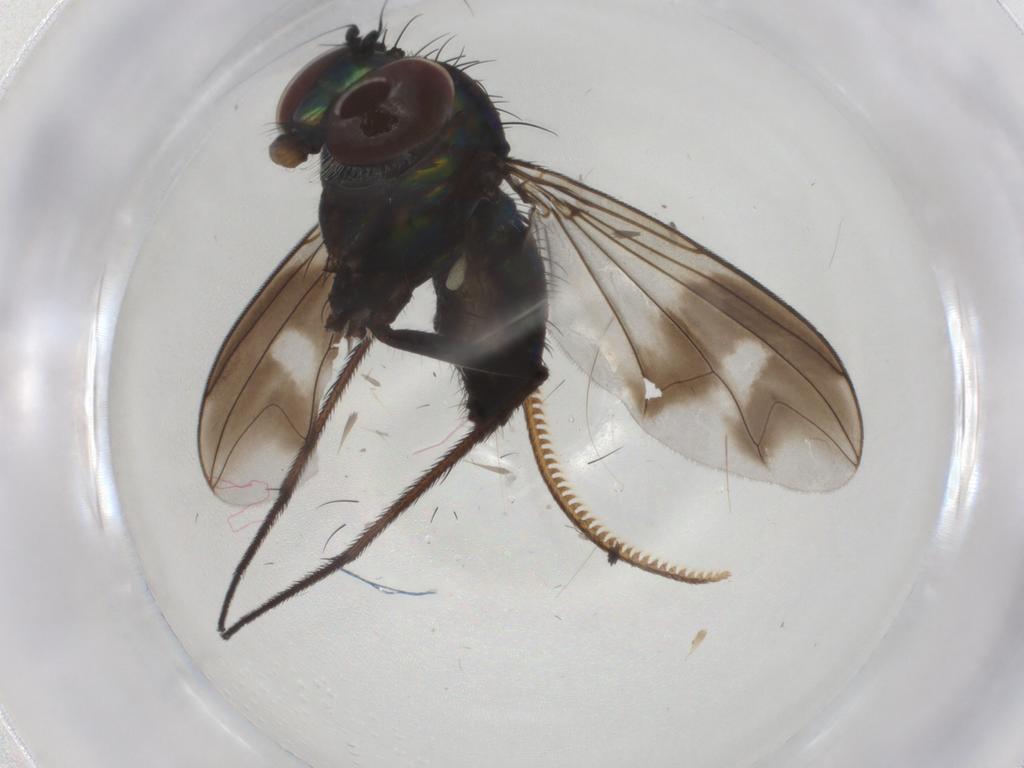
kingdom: Animalia
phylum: Arthropoda
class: Insecta
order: Diptera
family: Dolichopodidae
